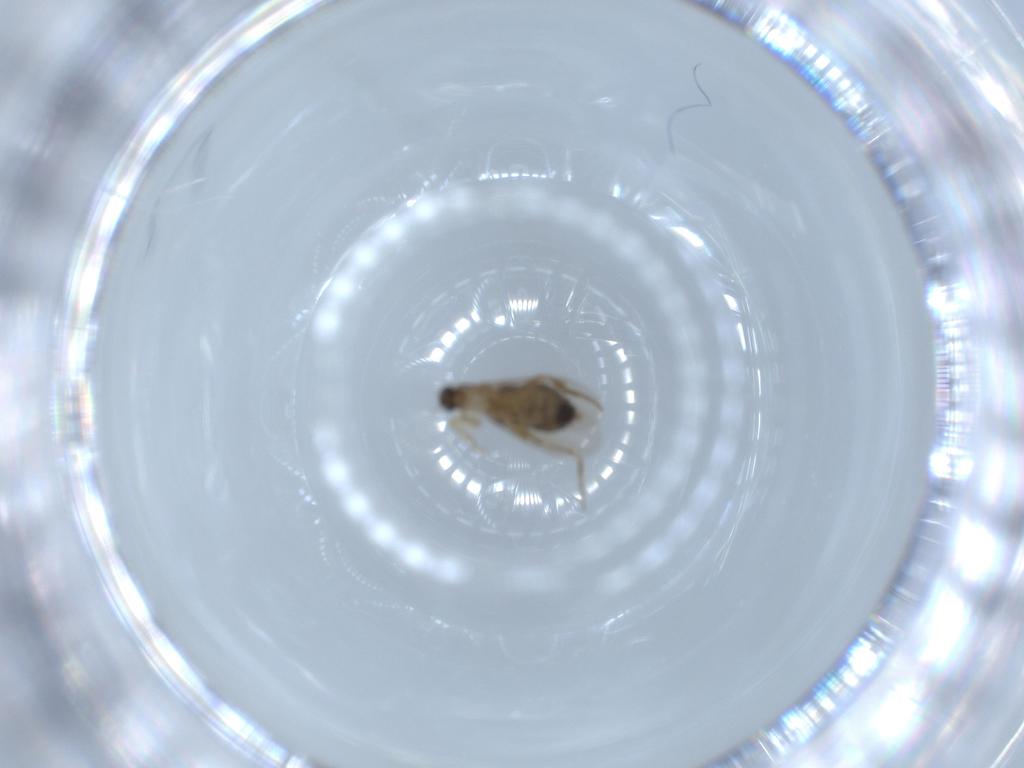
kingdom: Animalia
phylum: Arthropoda
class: Insecta
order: Diptera
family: Phoridae
